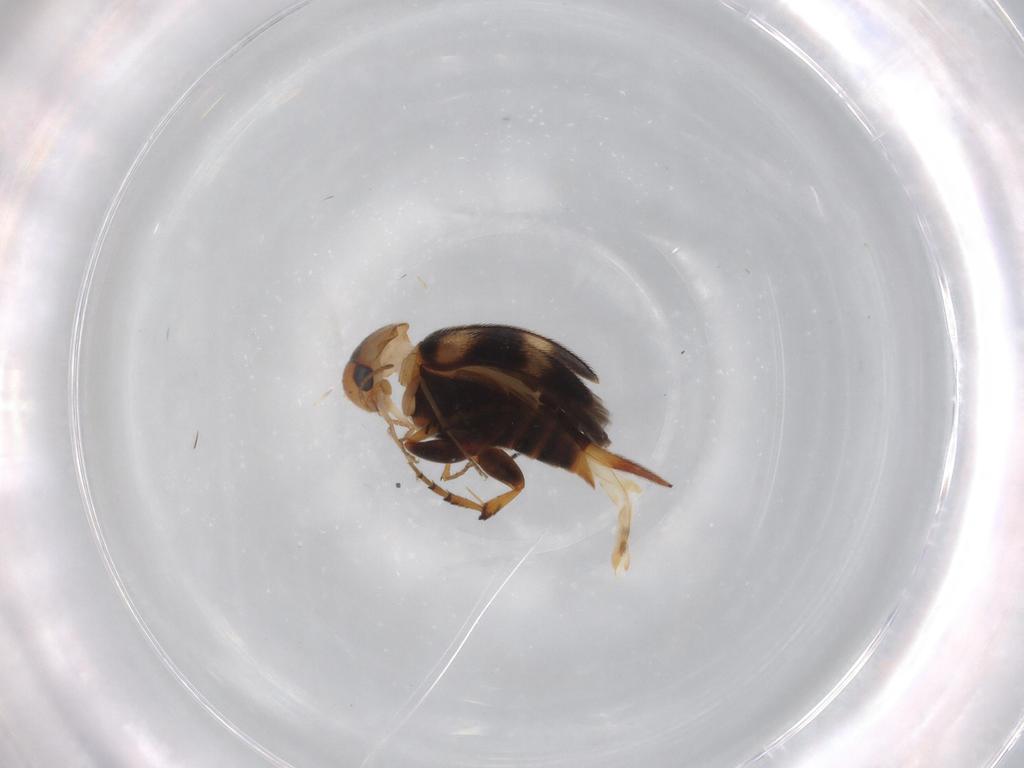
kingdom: Animalia
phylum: Arthropoda
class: Insecta
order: Coleoptera
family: Mordellidae
